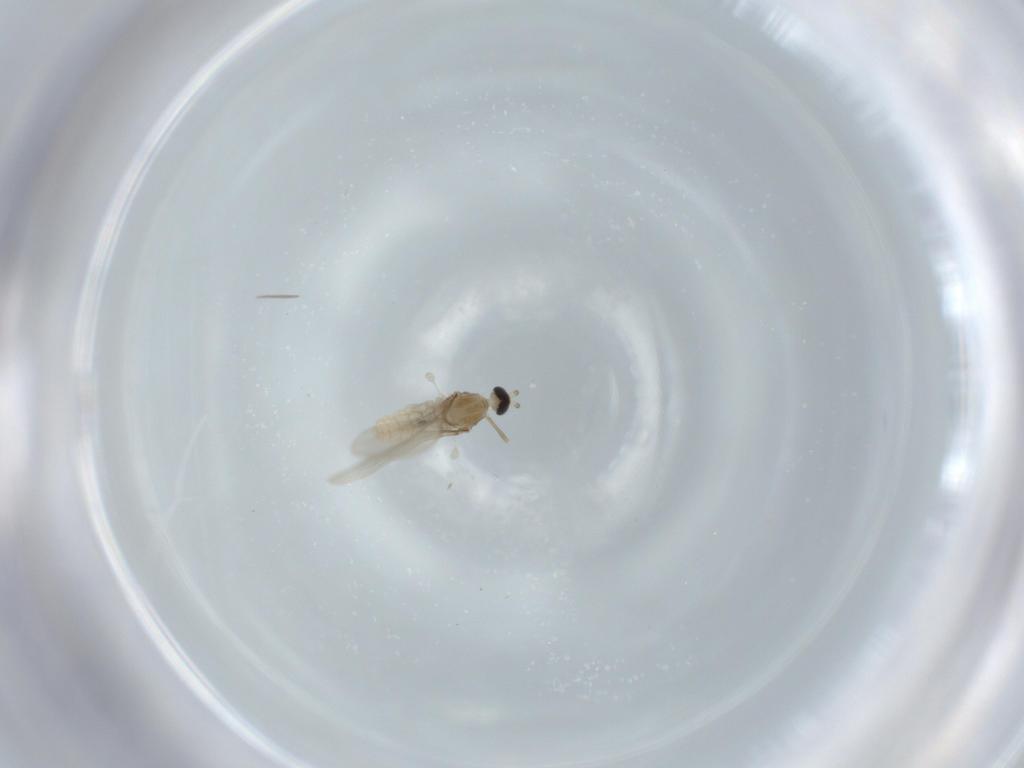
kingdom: Animalia
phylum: Arthropoda
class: Insecta
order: Diptera
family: Cecidomyiidae
